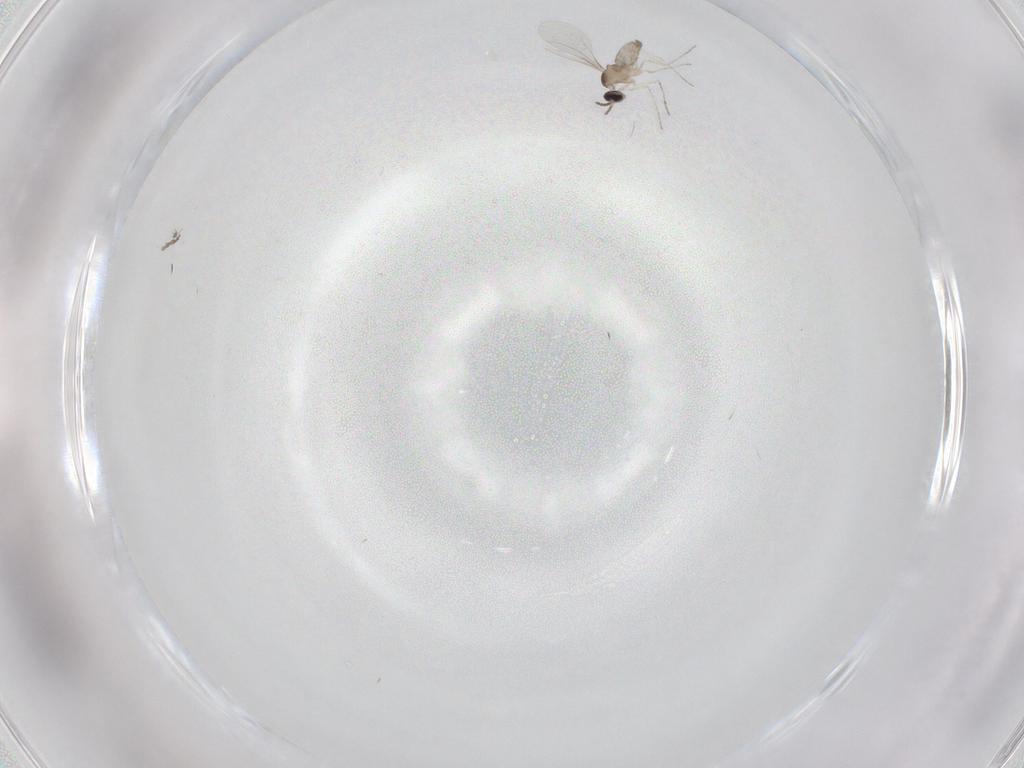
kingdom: Animalia
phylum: Arthropoda
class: Insecta
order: Diptera
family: Cecidomyiidae
